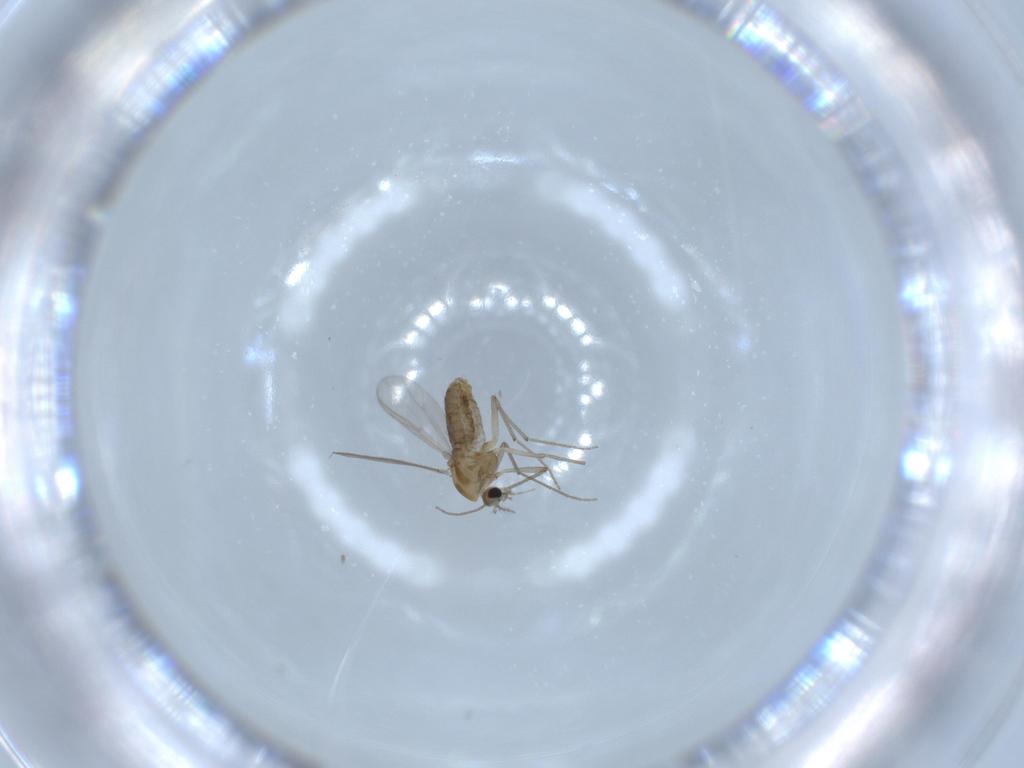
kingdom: Animalia
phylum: Arthropoda
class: Insecta
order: Diptera
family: Chironomidae
